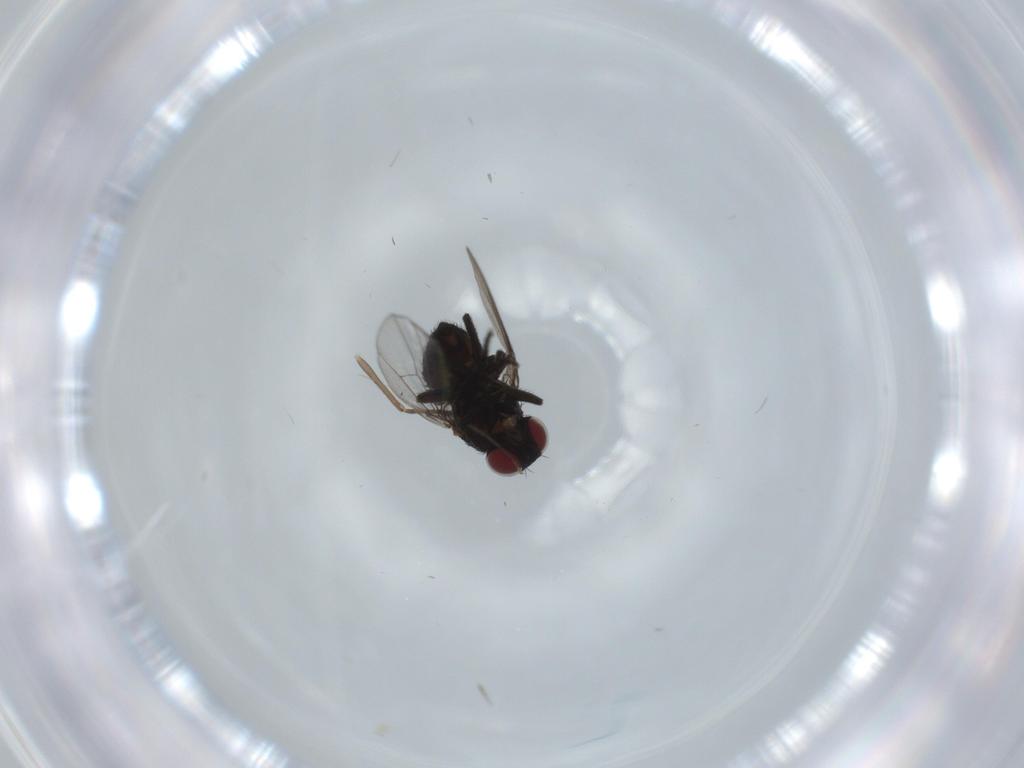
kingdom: Animalia
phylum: Arthropoda
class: Insecta
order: Diptera
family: Agromyzidae
